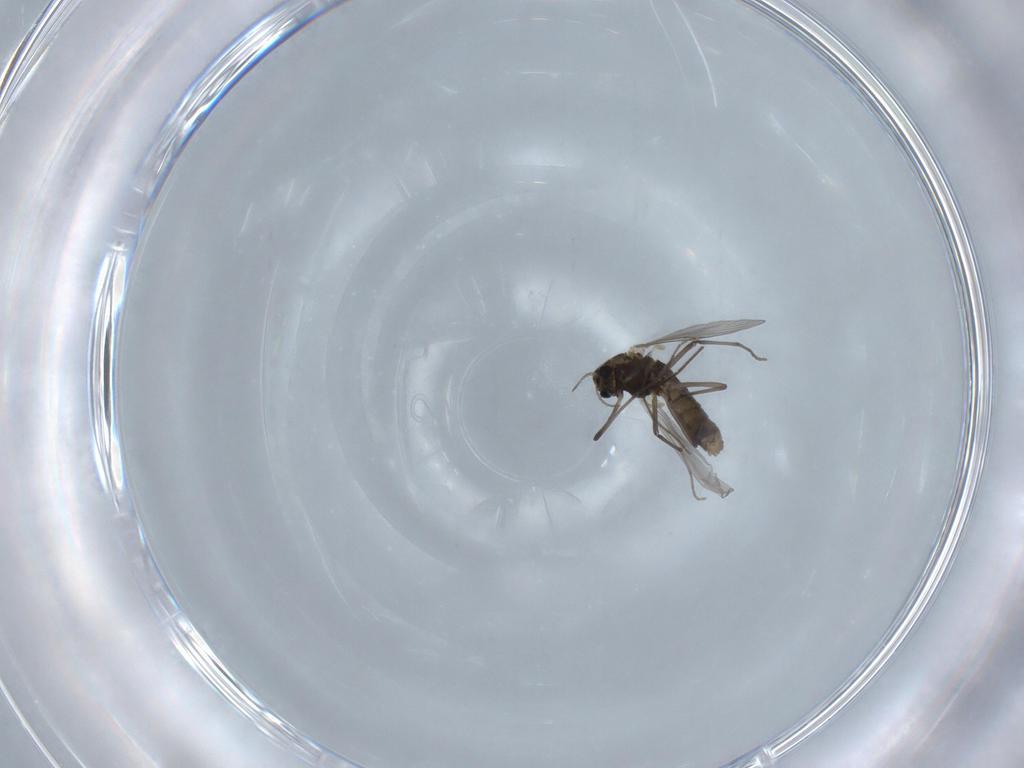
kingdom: Animalia
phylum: Arthropoda
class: Insecta
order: Diptera
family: Chironomidae
